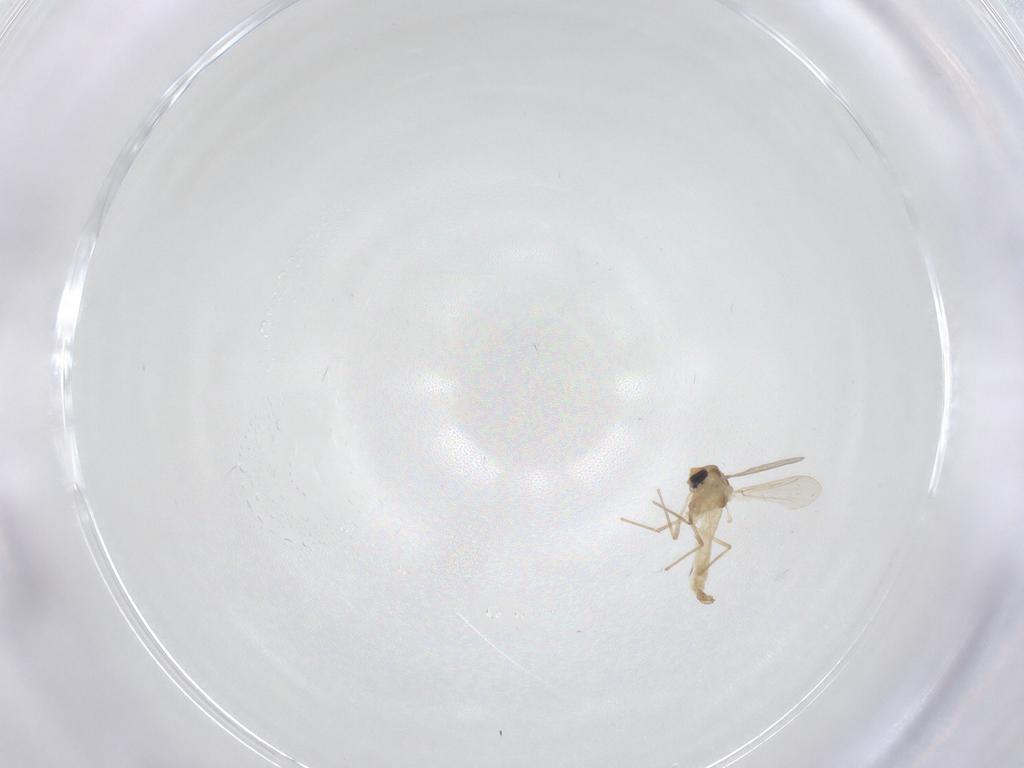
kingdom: Animalia
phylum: Arthropoda
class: Insecta
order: Diptera
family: Chironomidae
